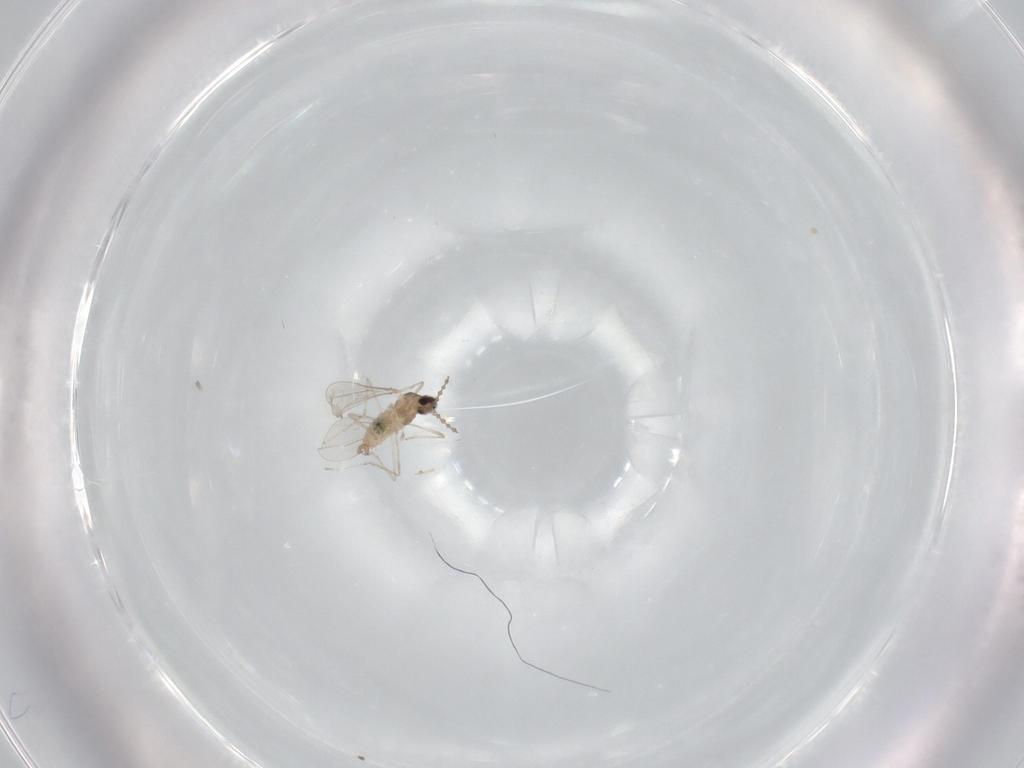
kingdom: Animalia
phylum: Arthropoda
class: Insecta
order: Diptera
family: Cecidomyiidae
